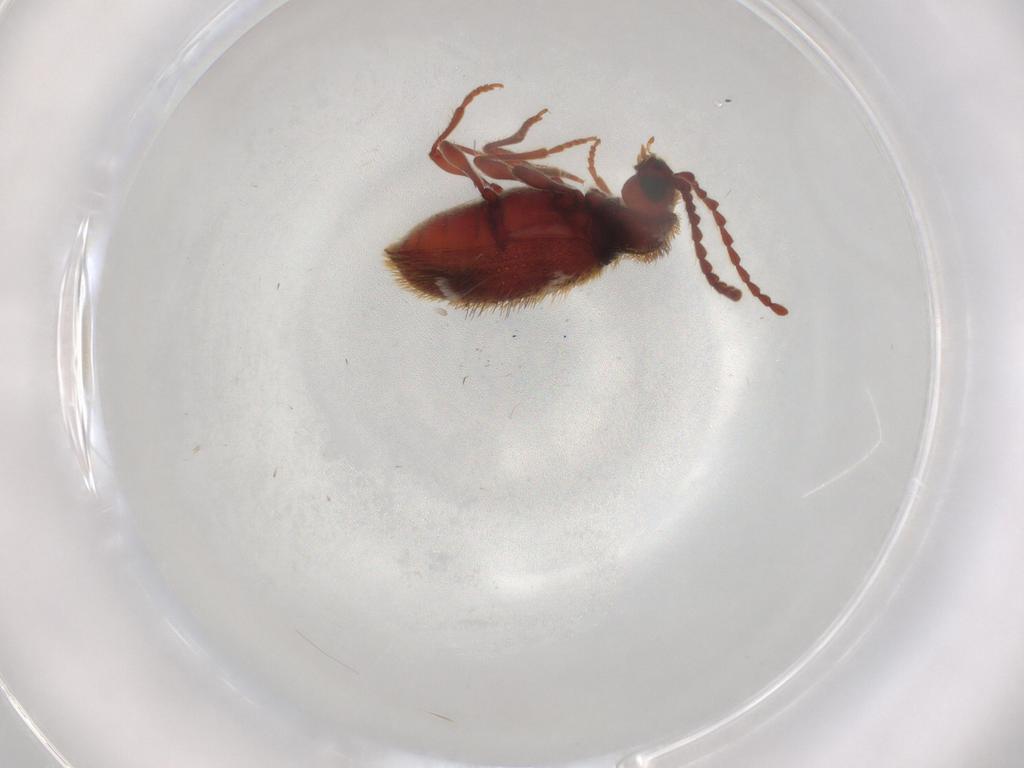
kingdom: Animalia
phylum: Arthropoda
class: Insecta
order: Coleoptera
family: Ptinidae
